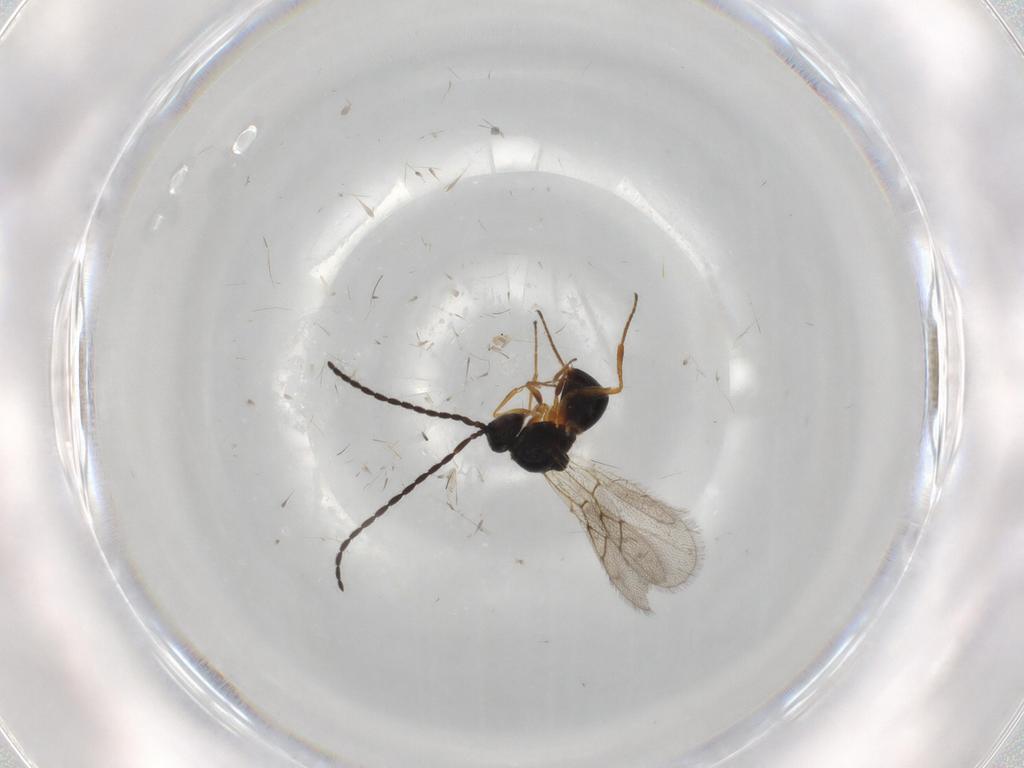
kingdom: Animalia
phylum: Arthropoda
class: Insecta
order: Hymenoptera
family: Figitidae
